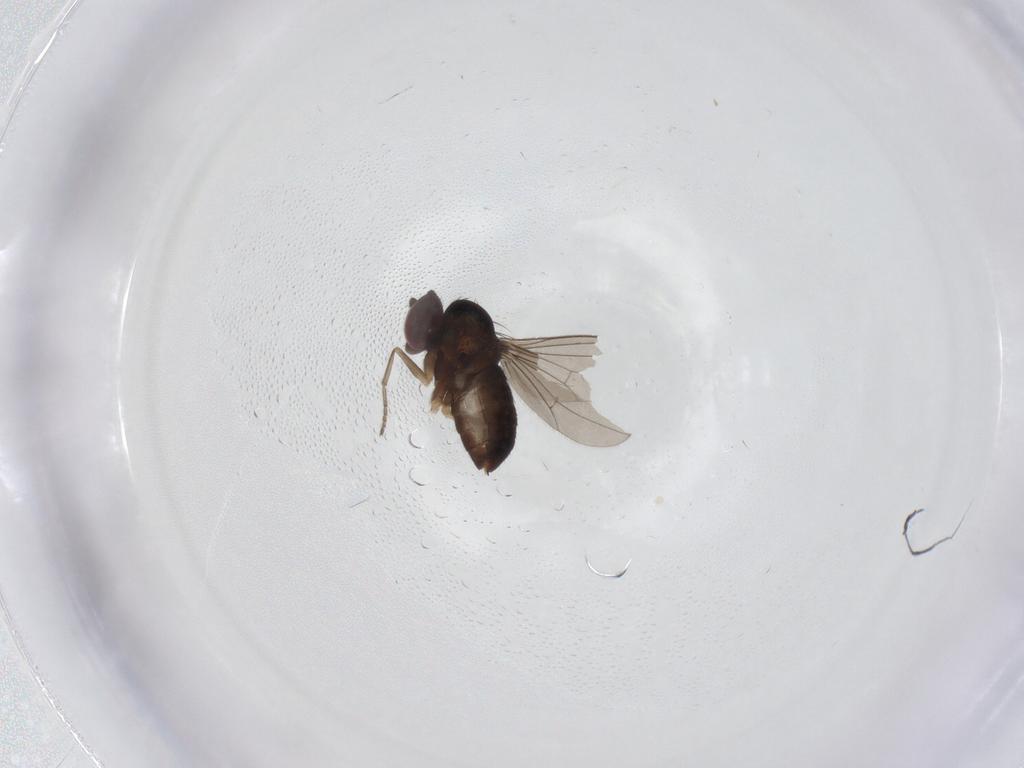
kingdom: Animalia
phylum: Arthropoda
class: Insecta
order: Diptera
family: Dolichopodidae
